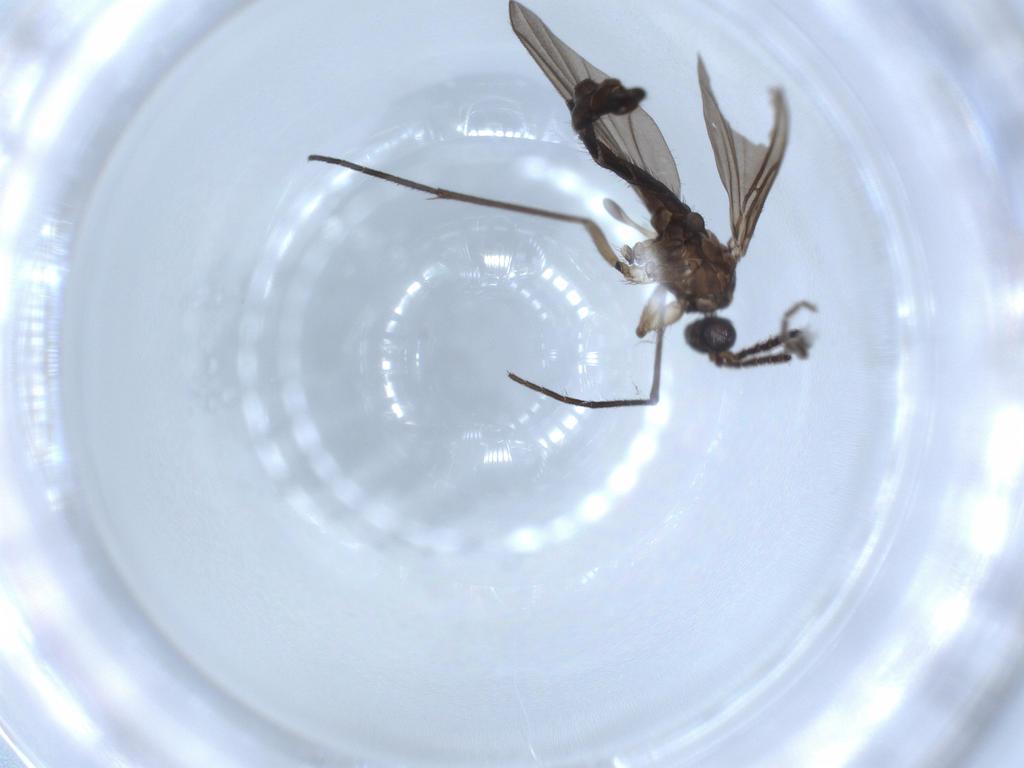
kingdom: Animalia
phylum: Arthropoda
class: Insecta
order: Diptera
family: Sciaridae
